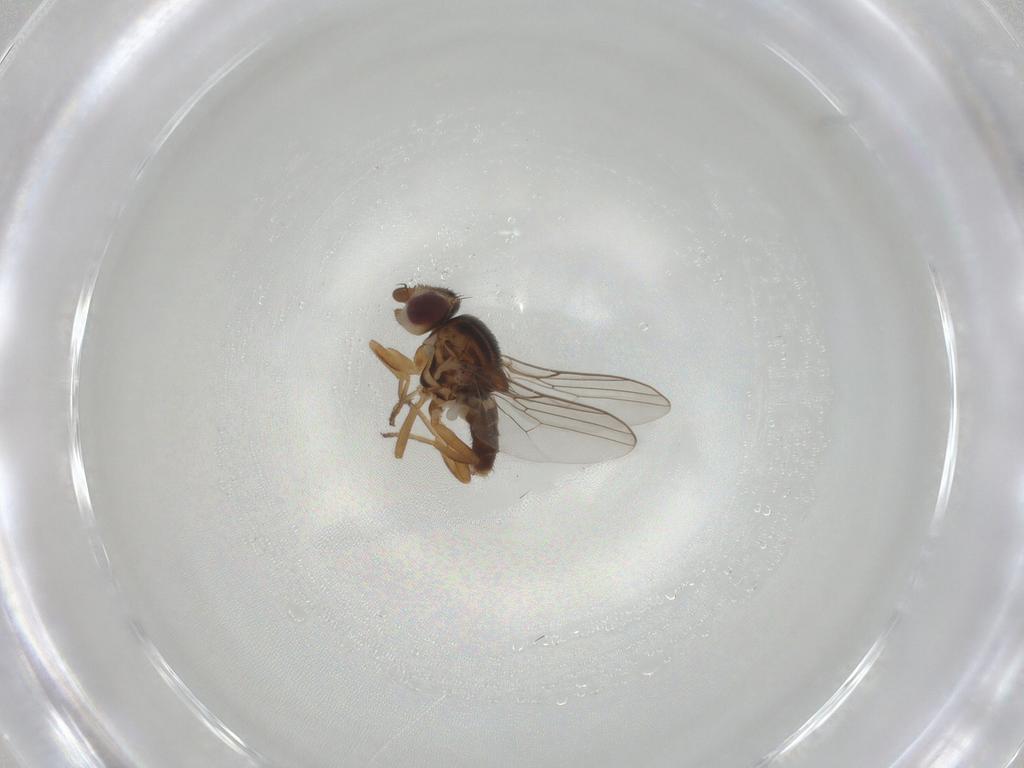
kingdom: Animalia
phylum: Arthropoda
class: Insecta
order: Diptera
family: Chloropidae
